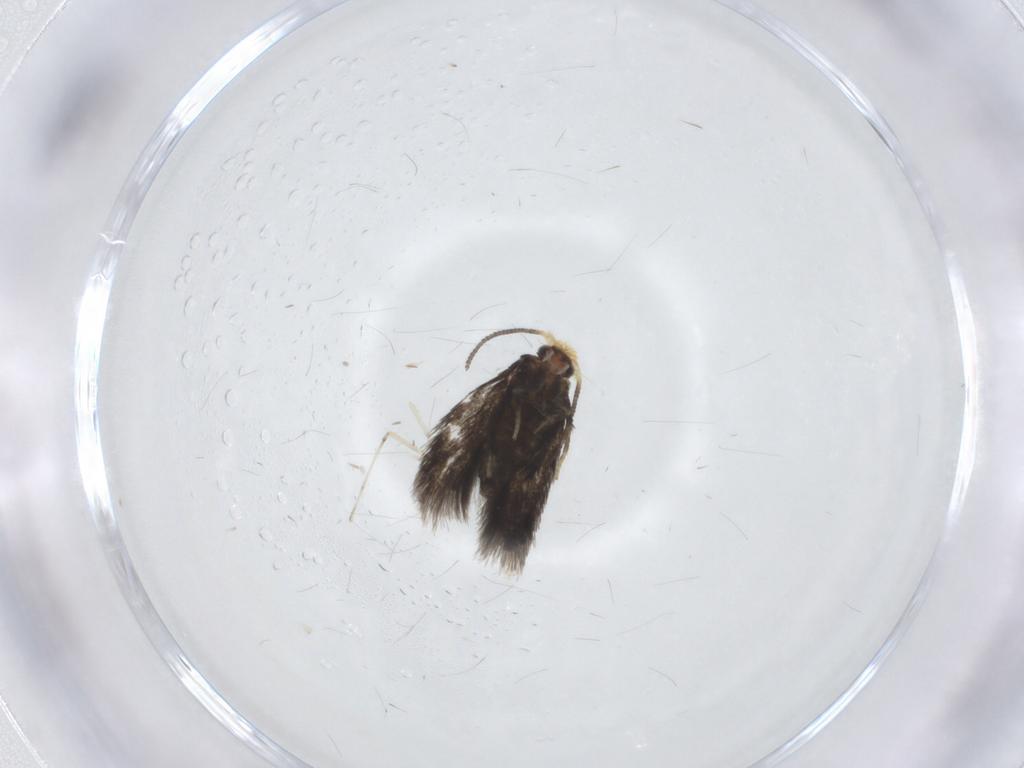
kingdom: Animalia
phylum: Arthropoda
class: Insecta
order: Lepidoptera
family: Nepticulidae
